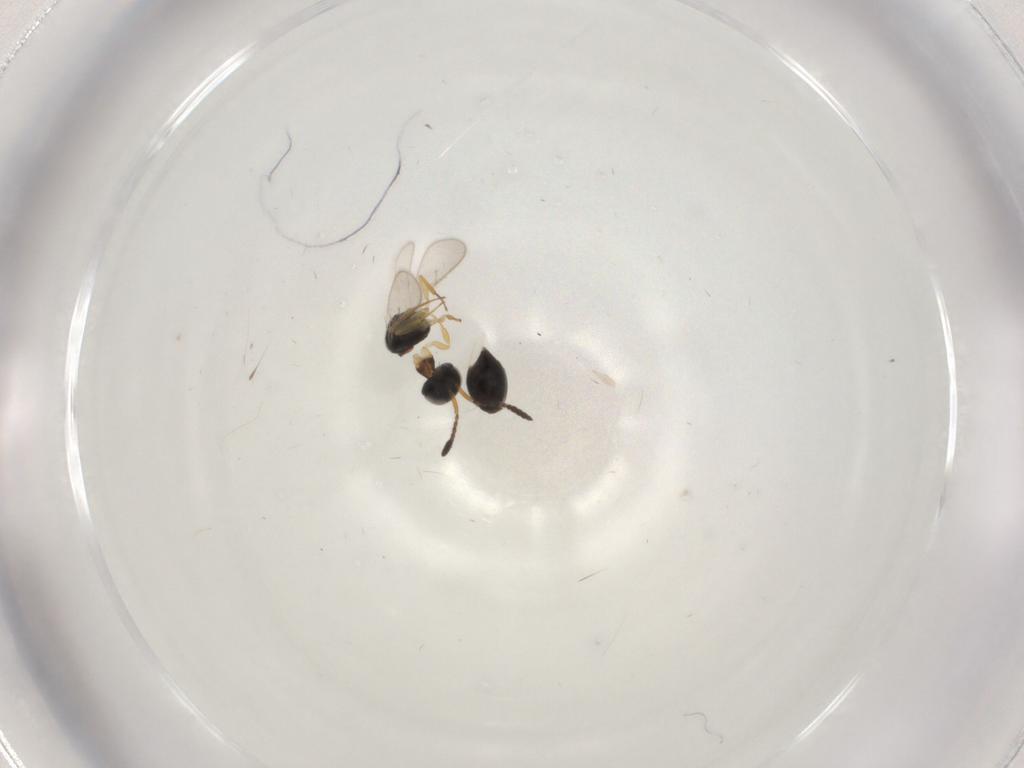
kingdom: Animalia
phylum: Arthropoda
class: Insecta
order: Hymenoptera
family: Scelionidae
